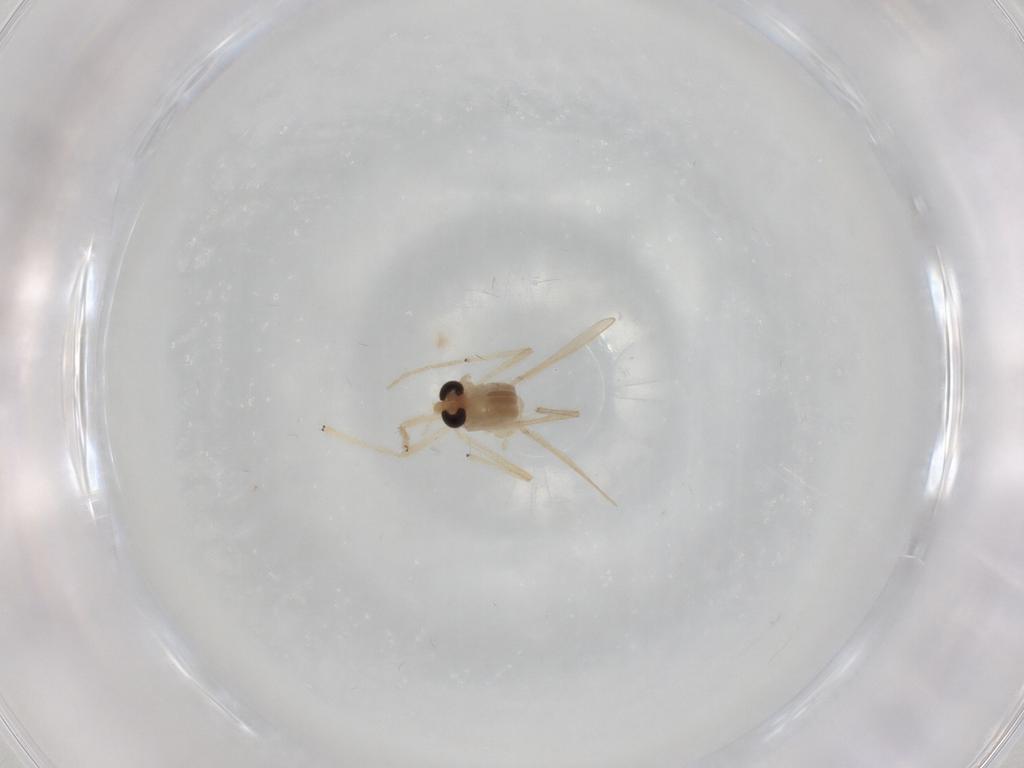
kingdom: Animalia
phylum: Arthropoda
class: Insecta
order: Diptera
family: Chironomidae
